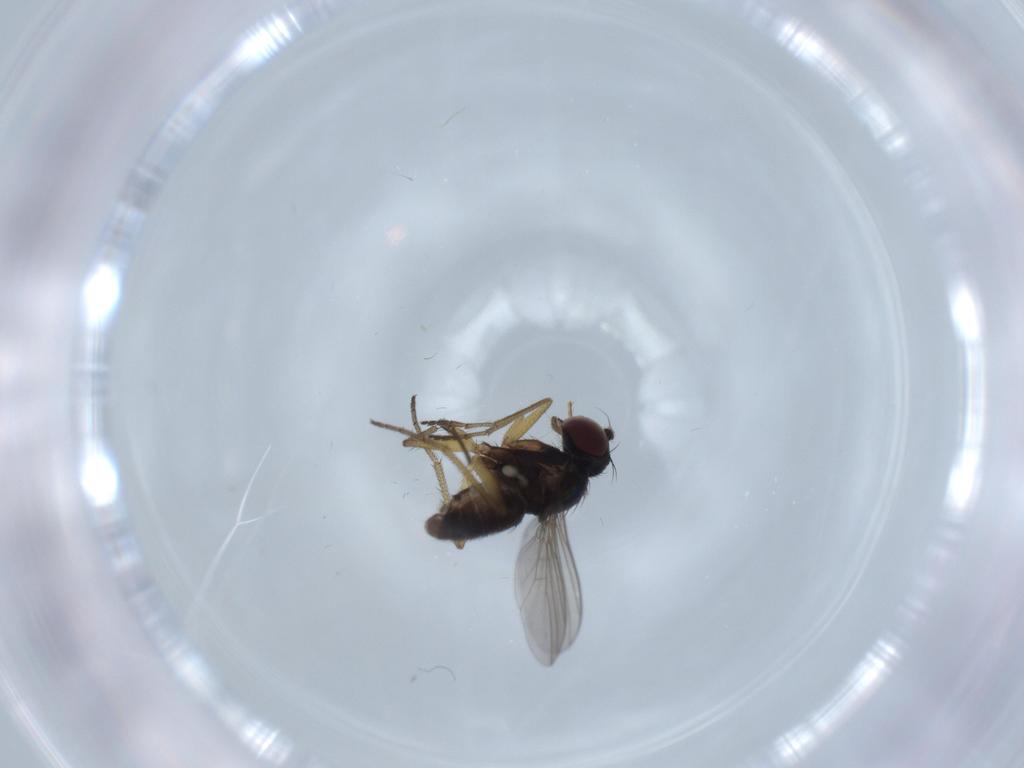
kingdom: Animalia
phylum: Arthropoda
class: Insecta
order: Diptera
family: Dolichopodidae
